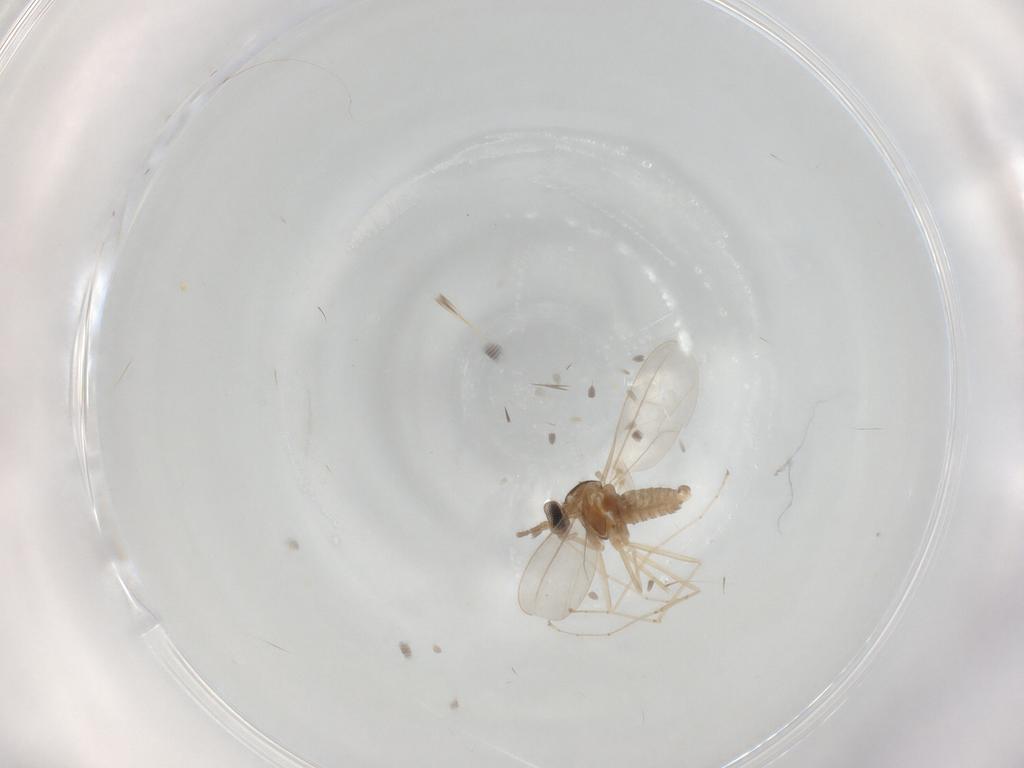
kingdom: Animalia
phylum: Arthropoda
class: Insecta
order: Diptera
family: Cecidomyiidae
